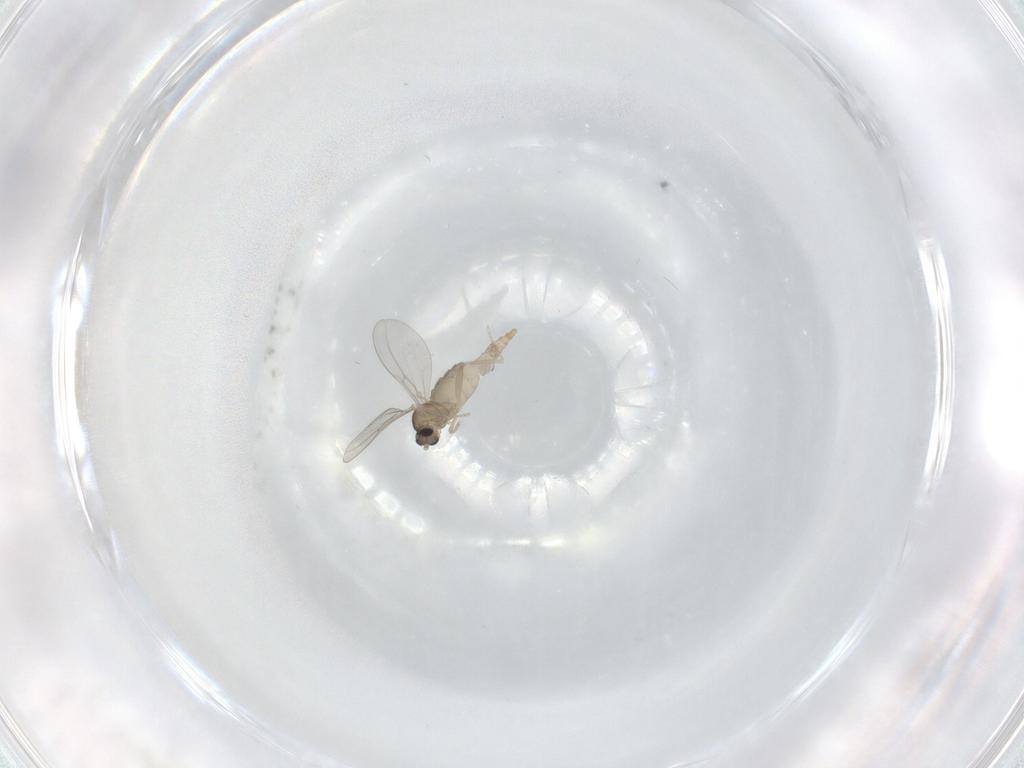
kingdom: Animalia
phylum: Arthropoda
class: Insecta
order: Diptera
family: Cecidomyiidae
